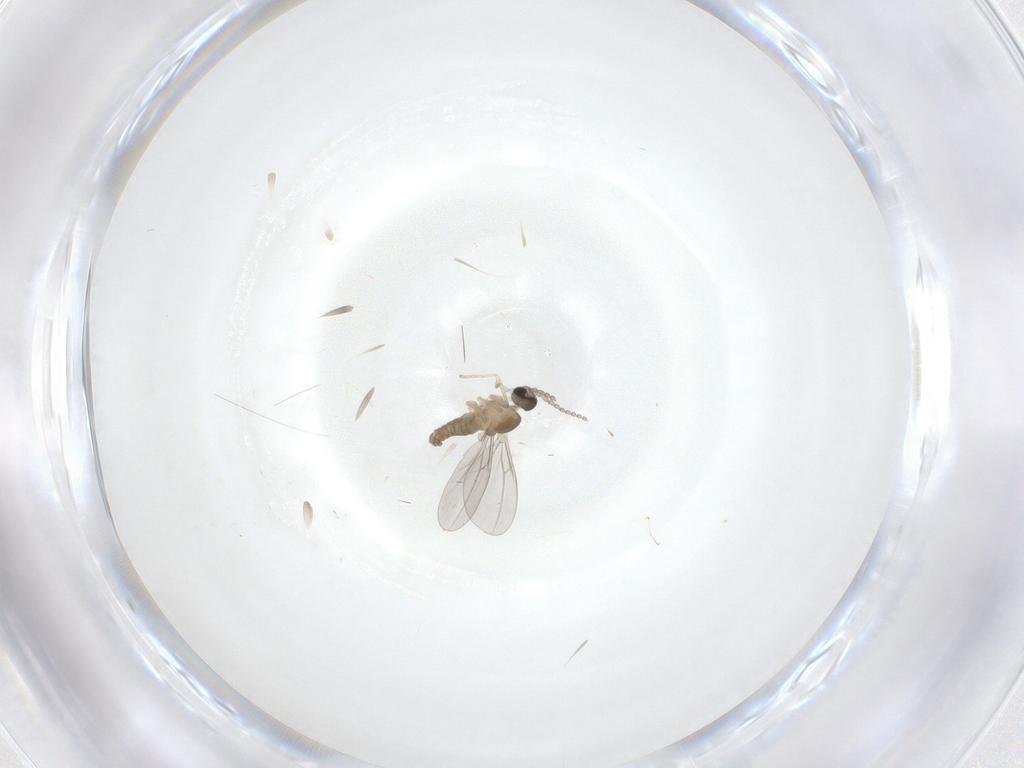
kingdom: Animalia
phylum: Arthropoda
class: Insecta
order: Diptera
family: Cecidomyiidae
